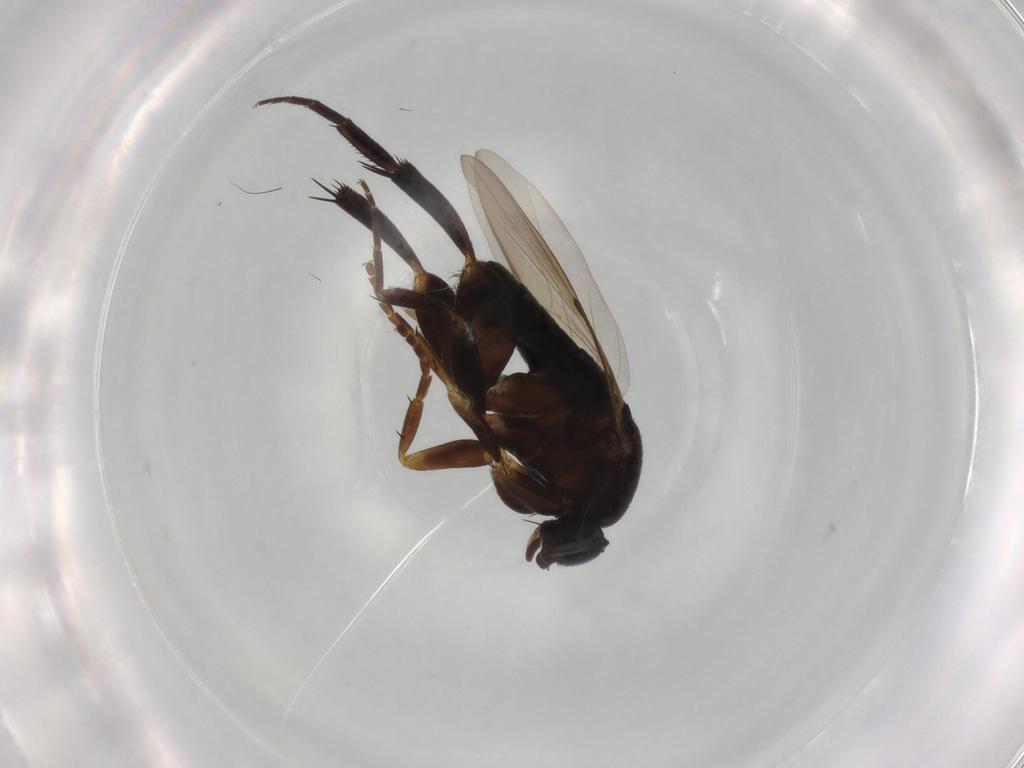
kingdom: Animalia
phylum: Arthropoda
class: Insecta
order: Diptera
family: Phoridae
